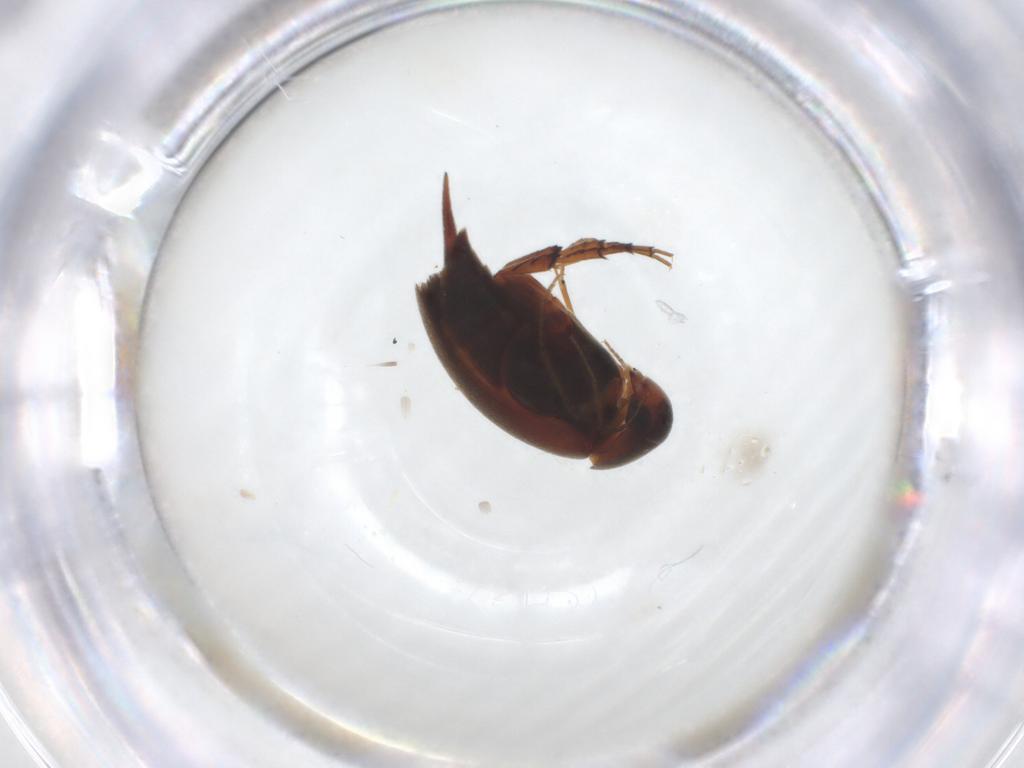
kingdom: Animalia
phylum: Arthropoda
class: Insecta
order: Coleoptera
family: Mordellidae
